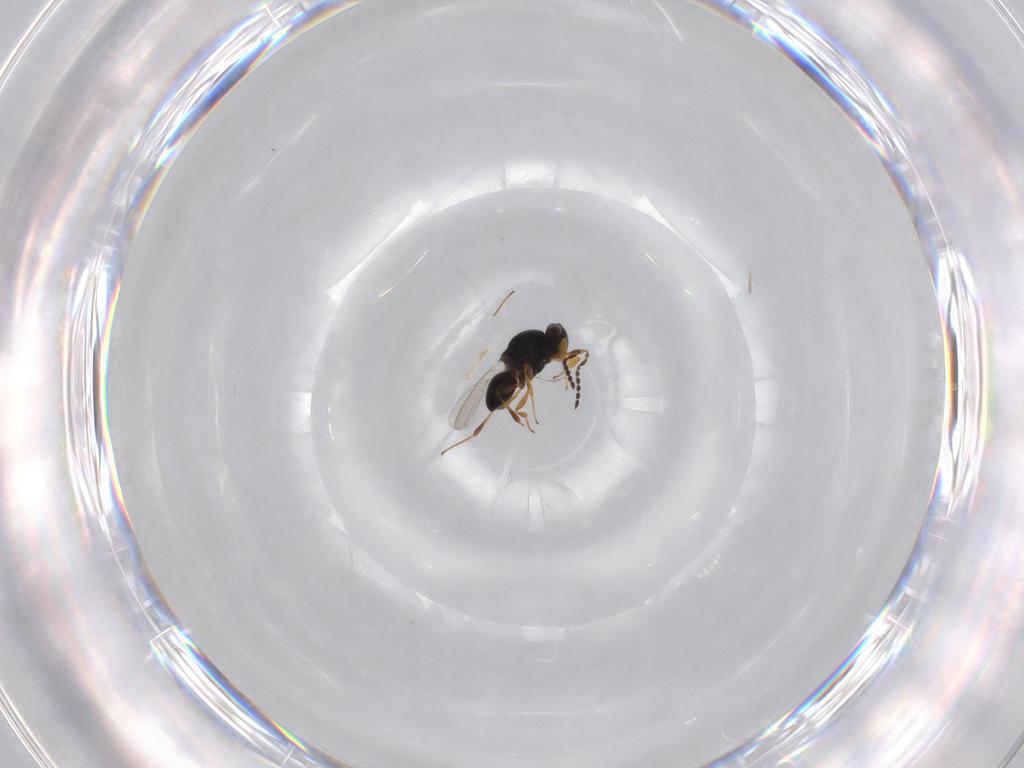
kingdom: Animalia
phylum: Arthropoda
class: Insecta
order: Hymenoptera
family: Platygastridae
